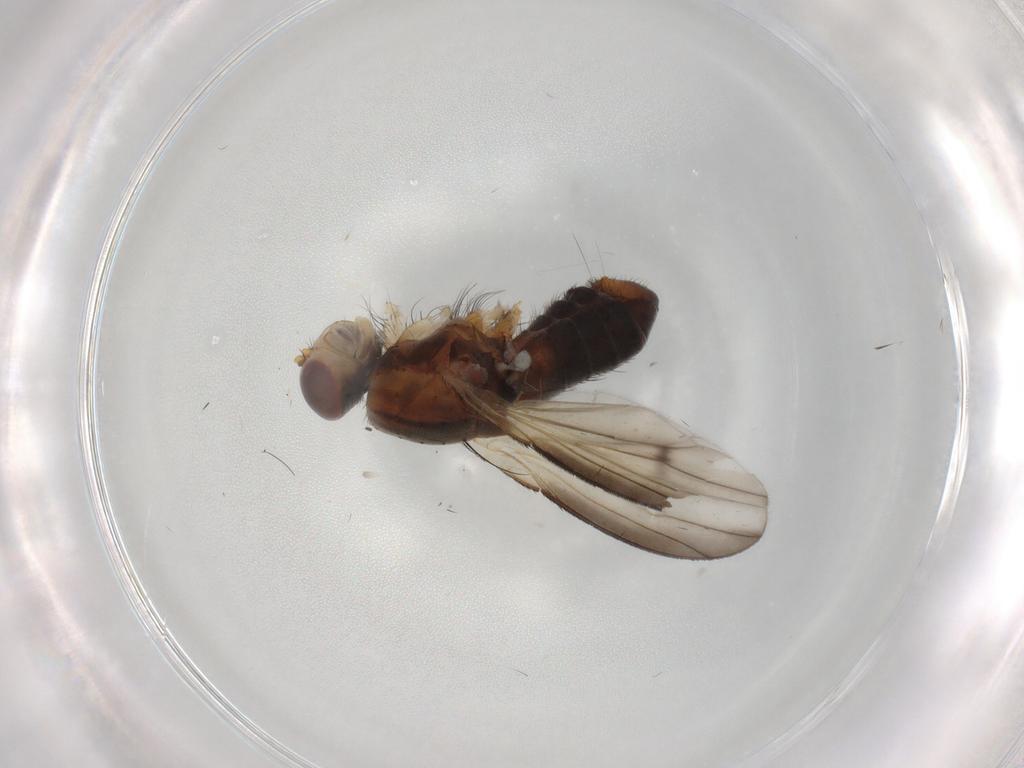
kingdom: Animalia
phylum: Arthropoda
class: Insecta
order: Diptera
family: Heleomyzidae
